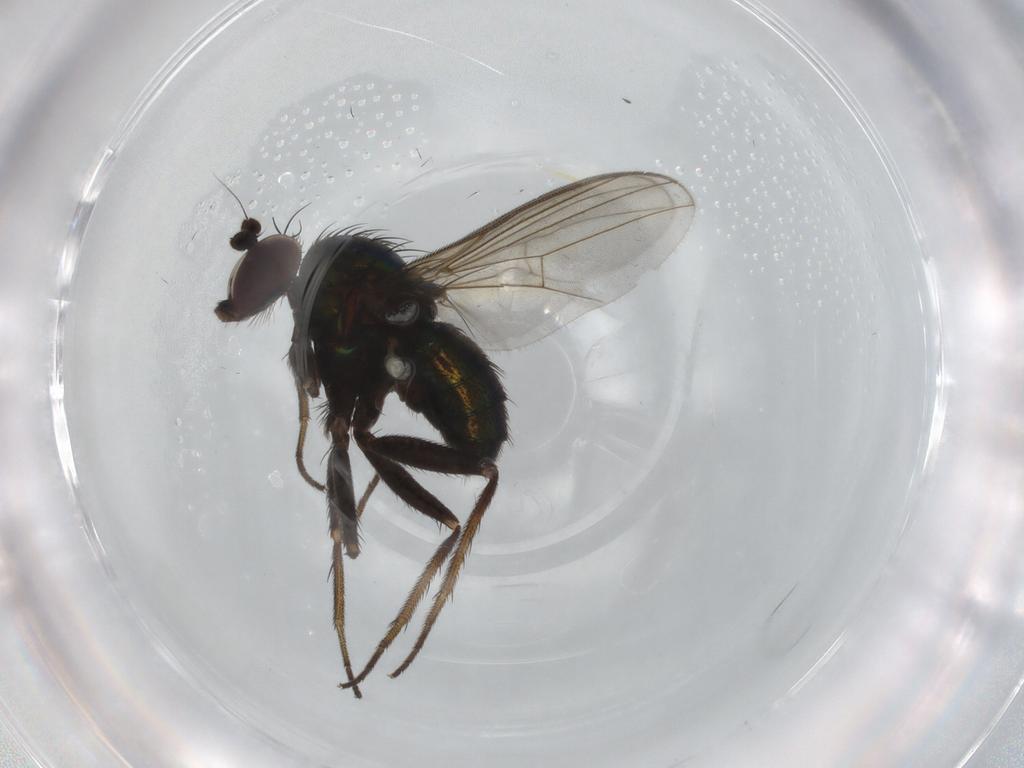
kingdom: Animalia
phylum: Arthropoda
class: Insecta
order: Diptera
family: Dolichopodidae
